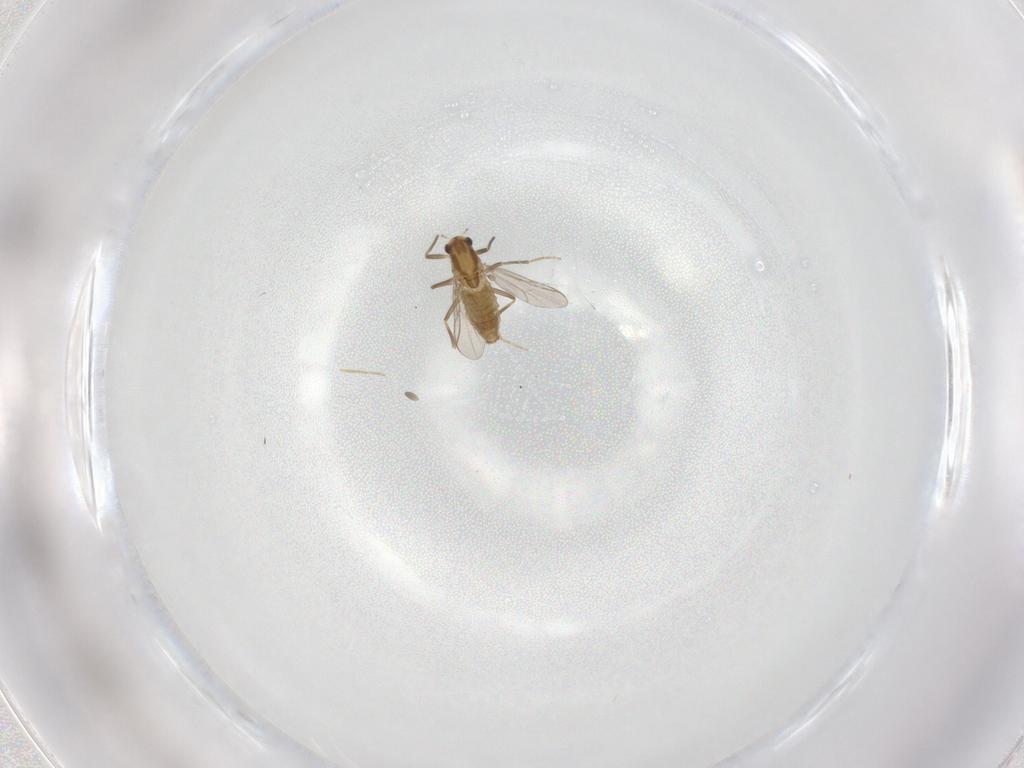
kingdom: Animalia
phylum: Arthropoda
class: Insecta
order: Diptera
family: Chironomidae
